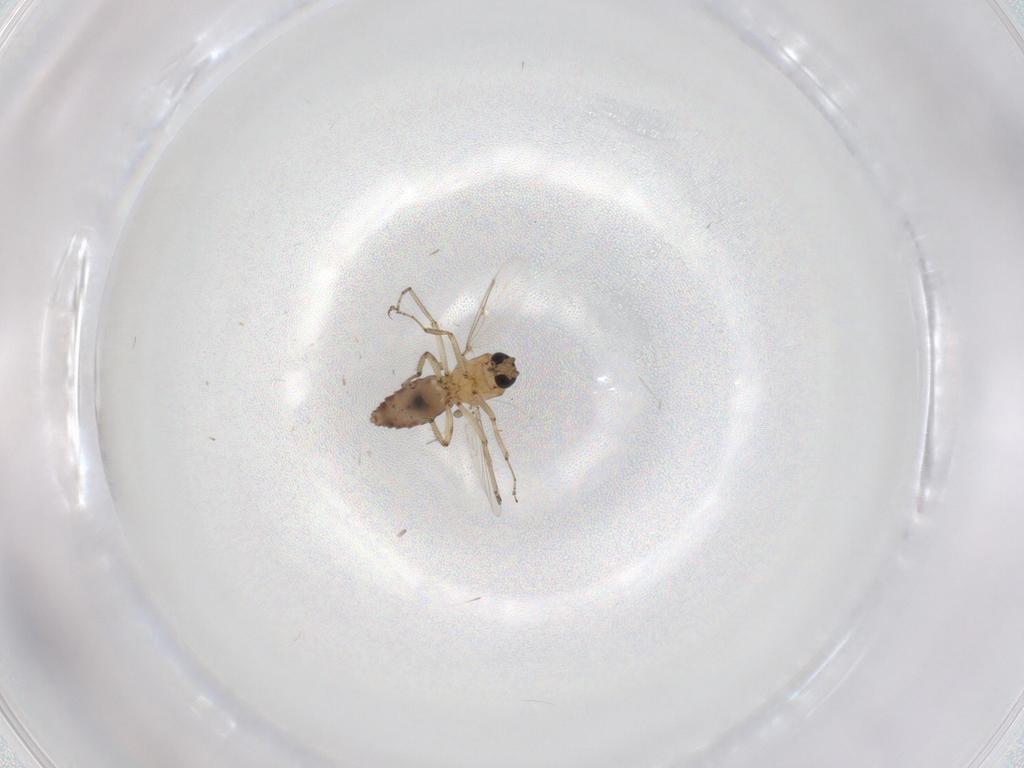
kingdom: Animalia
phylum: Arthropoda
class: Insecta
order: Diptera
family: Ceratopogonidae
